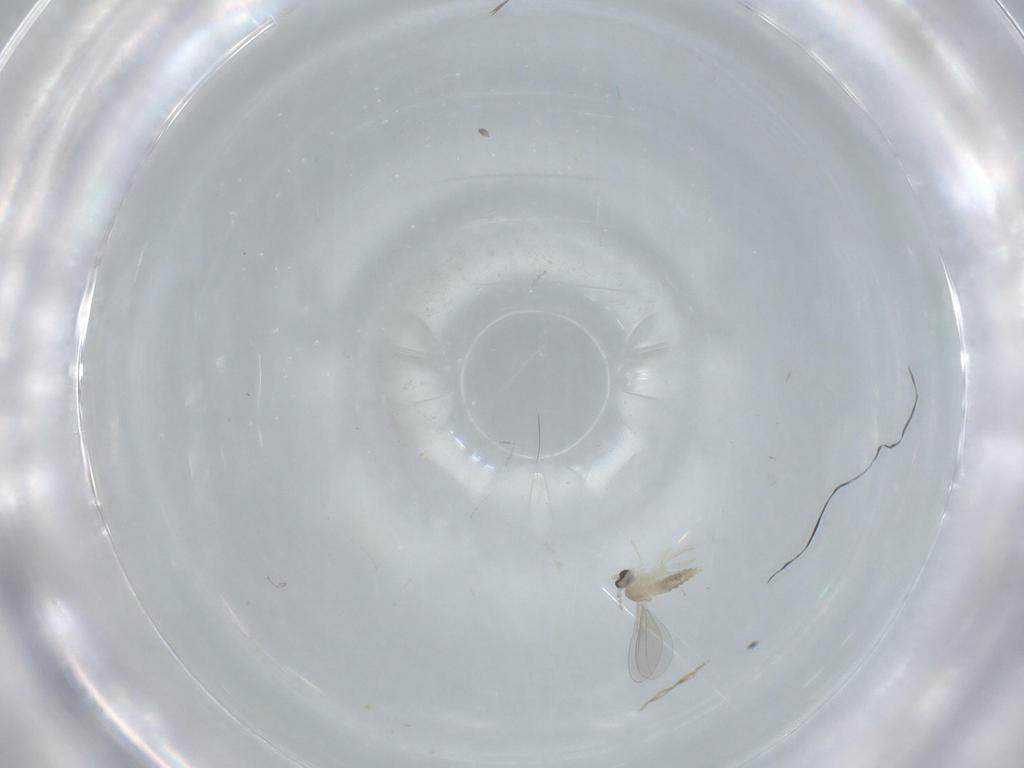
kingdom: Animalia
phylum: Arthropoda
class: Insecta
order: Diptera
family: Cecidomyiidae
